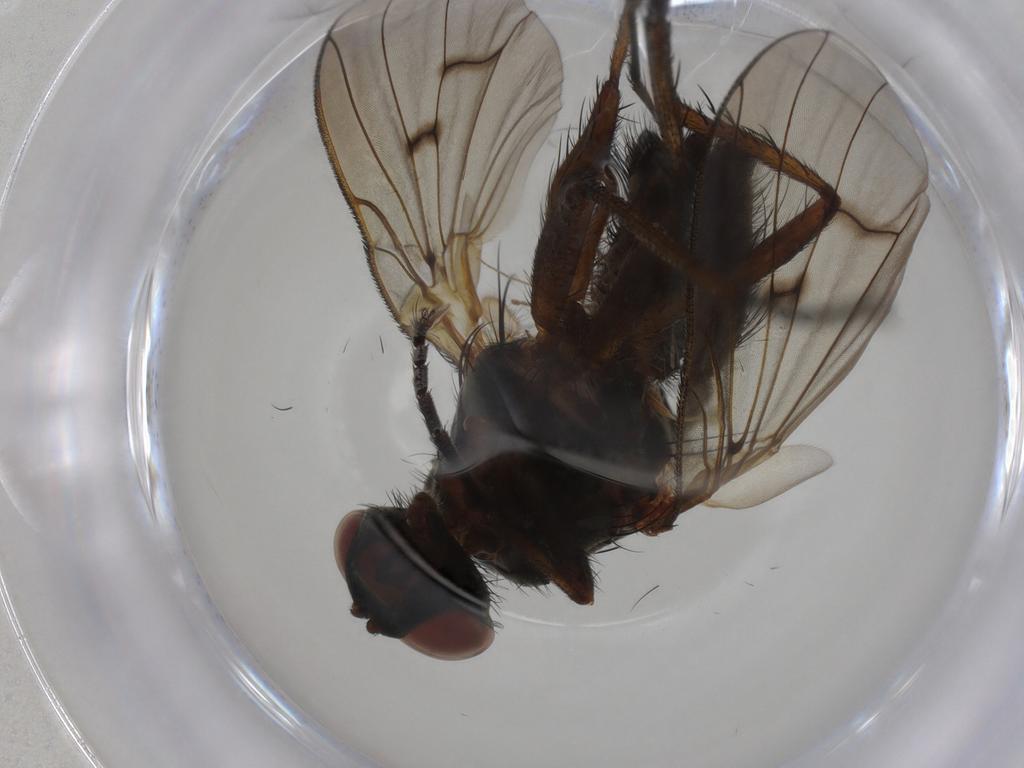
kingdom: Animalia
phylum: Arthropoda
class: Insecta
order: Diptera
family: Anthomyiidae
